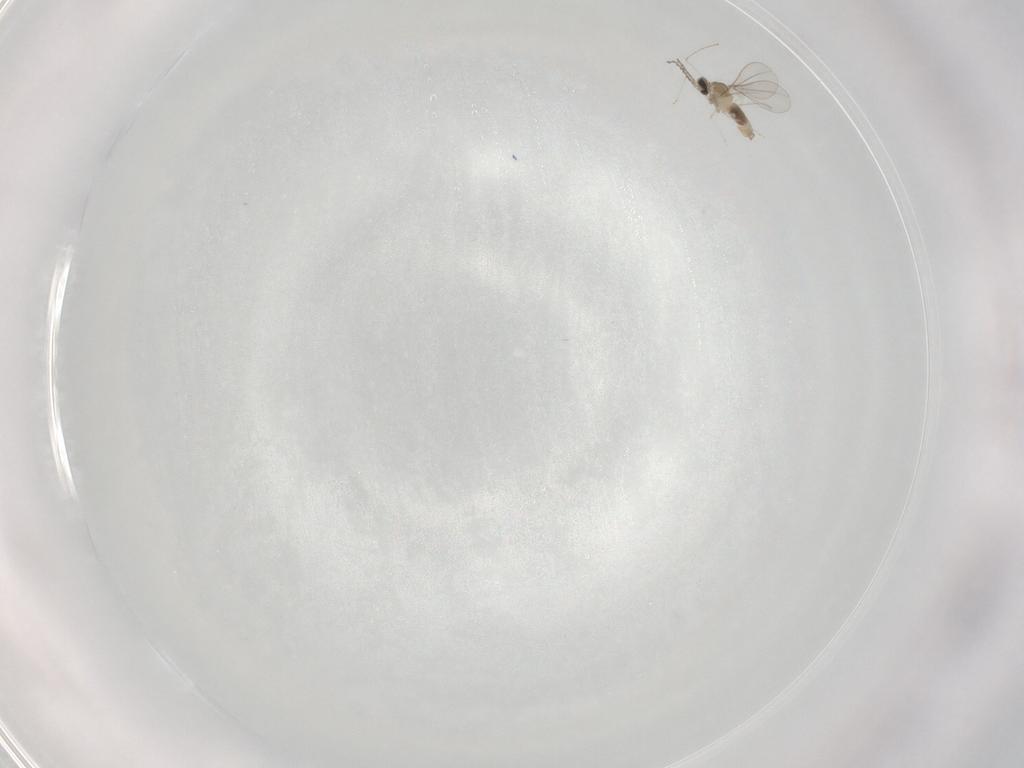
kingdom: Animalia
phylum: Arthropoda
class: Insecta
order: Diptera
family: Chironomidae
